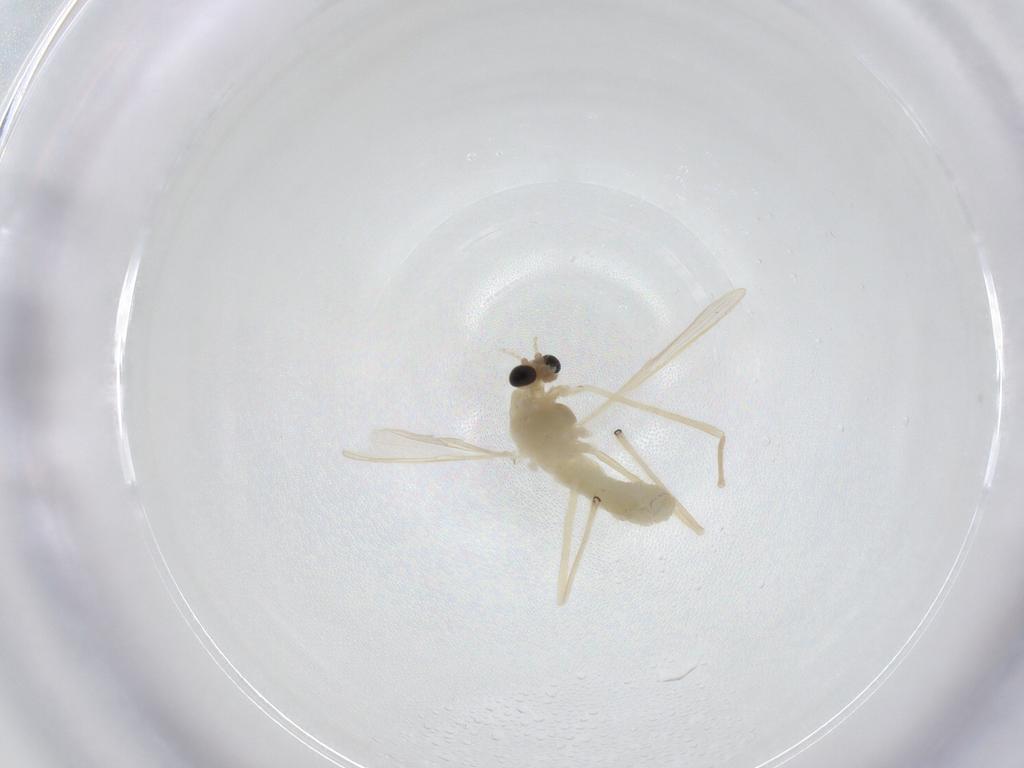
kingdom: Animalia
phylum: Arthropoda
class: Insecta
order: Diptera
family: Chironomidae
